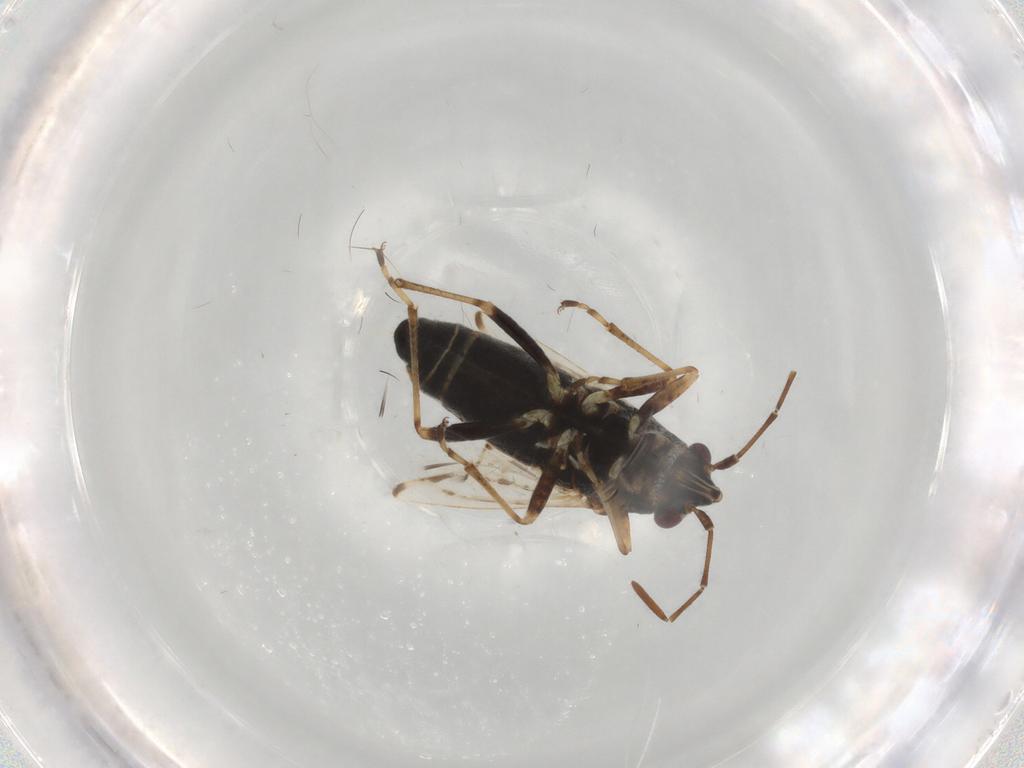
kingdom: Animalia
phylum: Arthropoda
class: Insecta
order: Hemiptera
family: Lygaeidae
